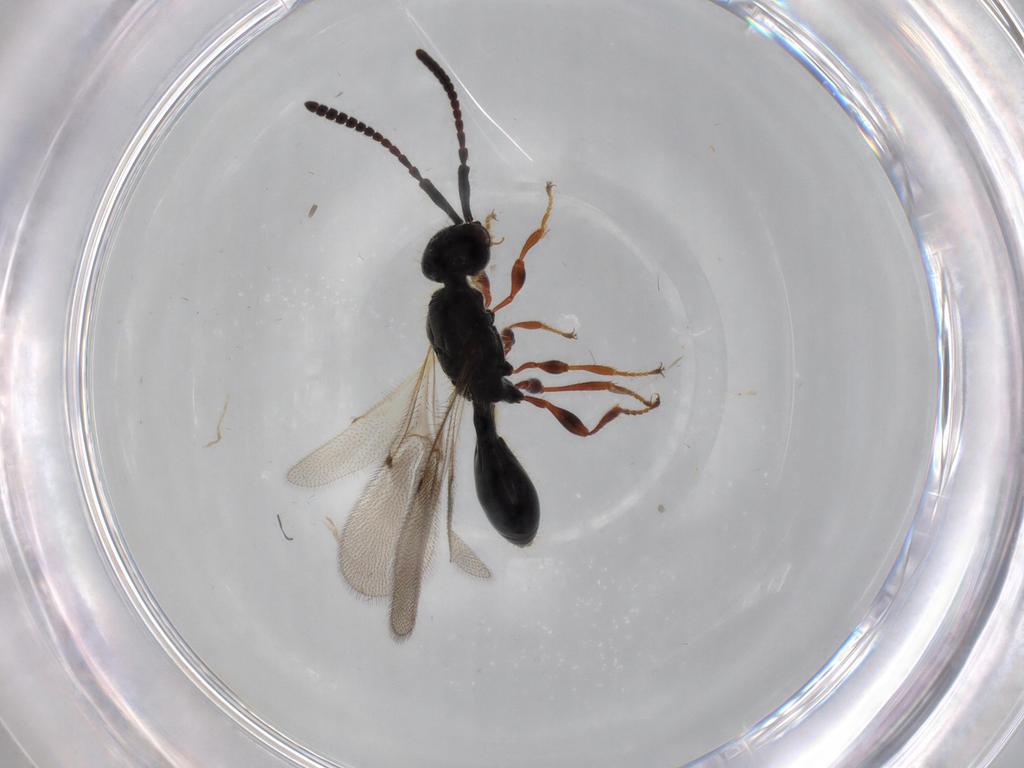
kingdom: Animalia
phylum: Arthropoda
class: Insecta
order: Hymenoptera
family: Diapriidae
